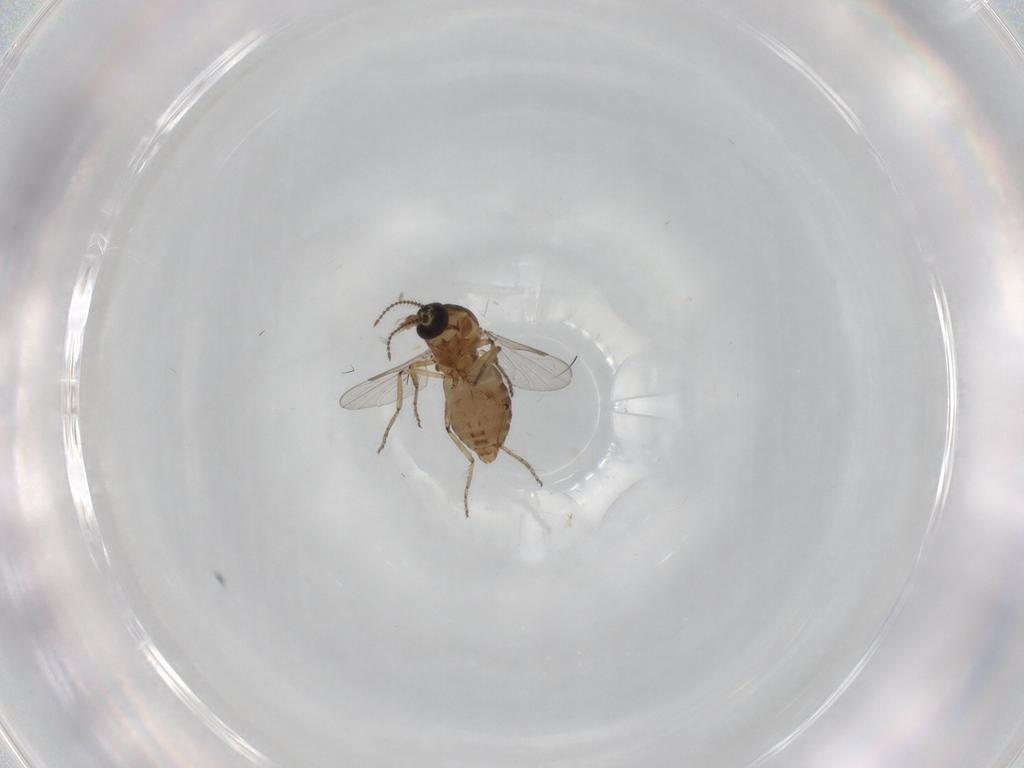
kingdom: Animalia
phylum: Arthropoda
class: Insecta
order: Diptera
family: Ceratopogonidae
